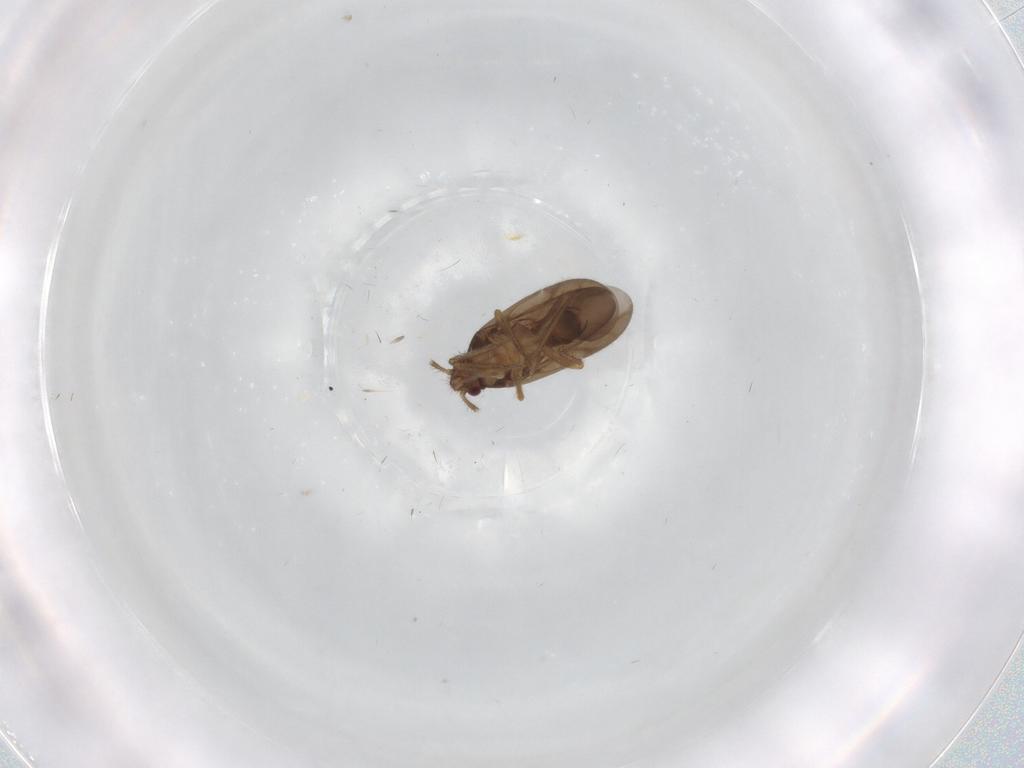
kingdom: Animalia
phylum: Arthropoda
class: Insecta
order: Hemiptera
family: Ceratocombidae
